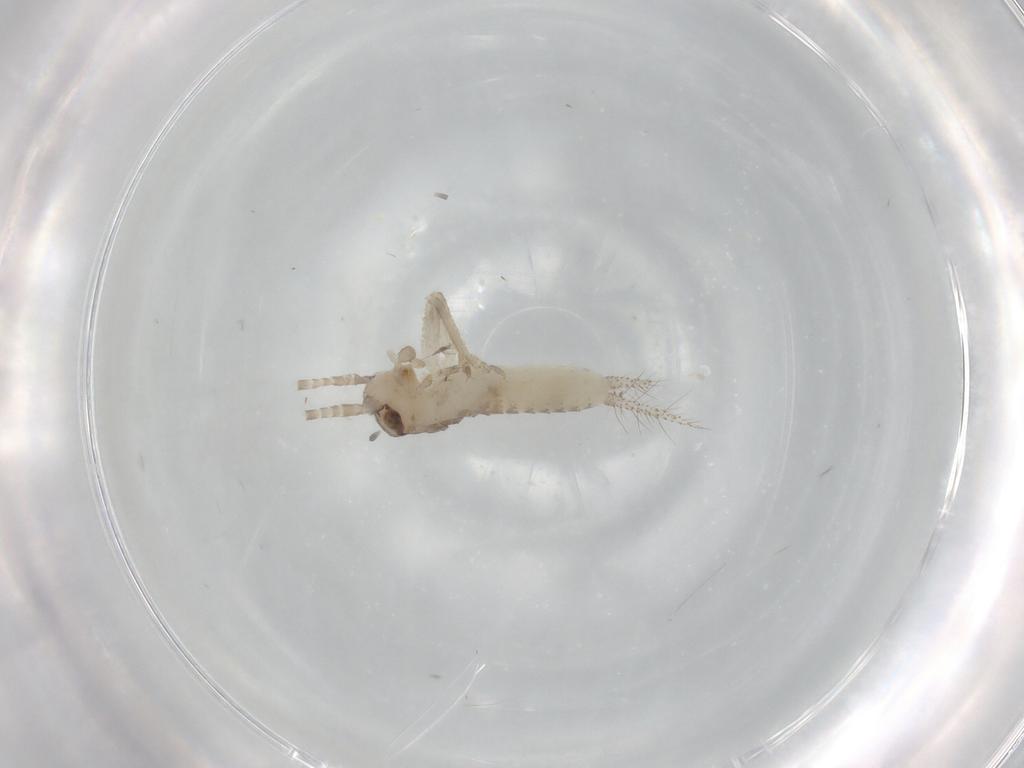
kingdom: Animalia
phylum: Arthropoda
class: Insecta
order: Orthoptera
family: Gryllidae
